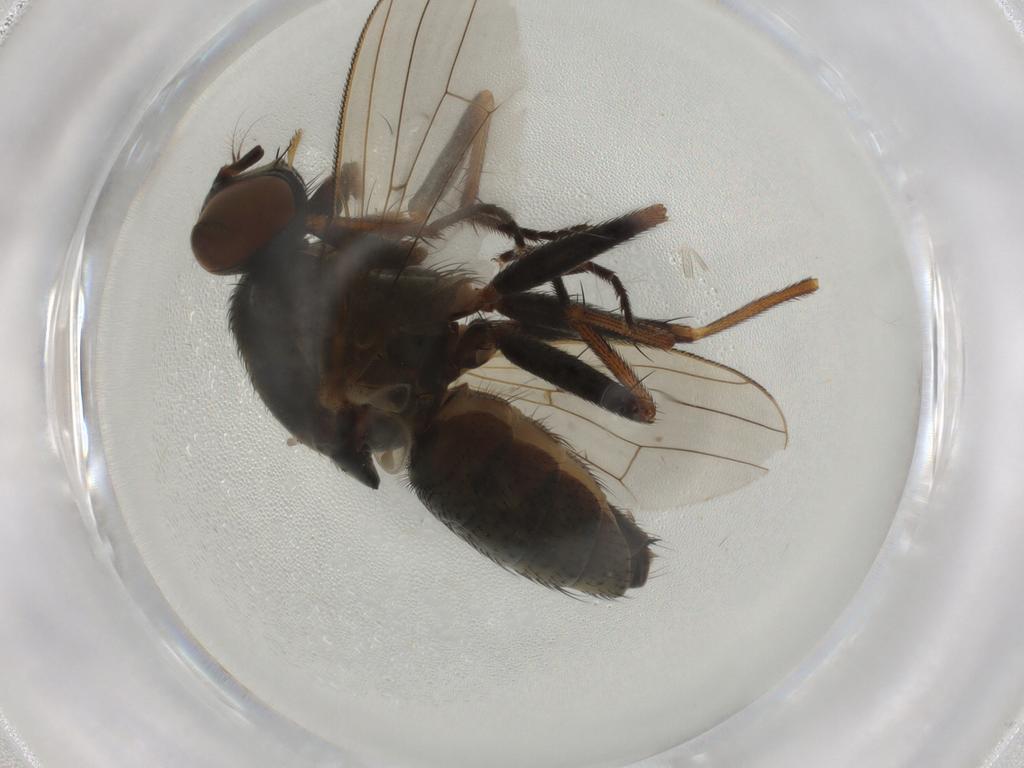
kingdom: Animalia
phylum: Arthropoda
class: Insecta
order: Diptera
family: Muscidae
